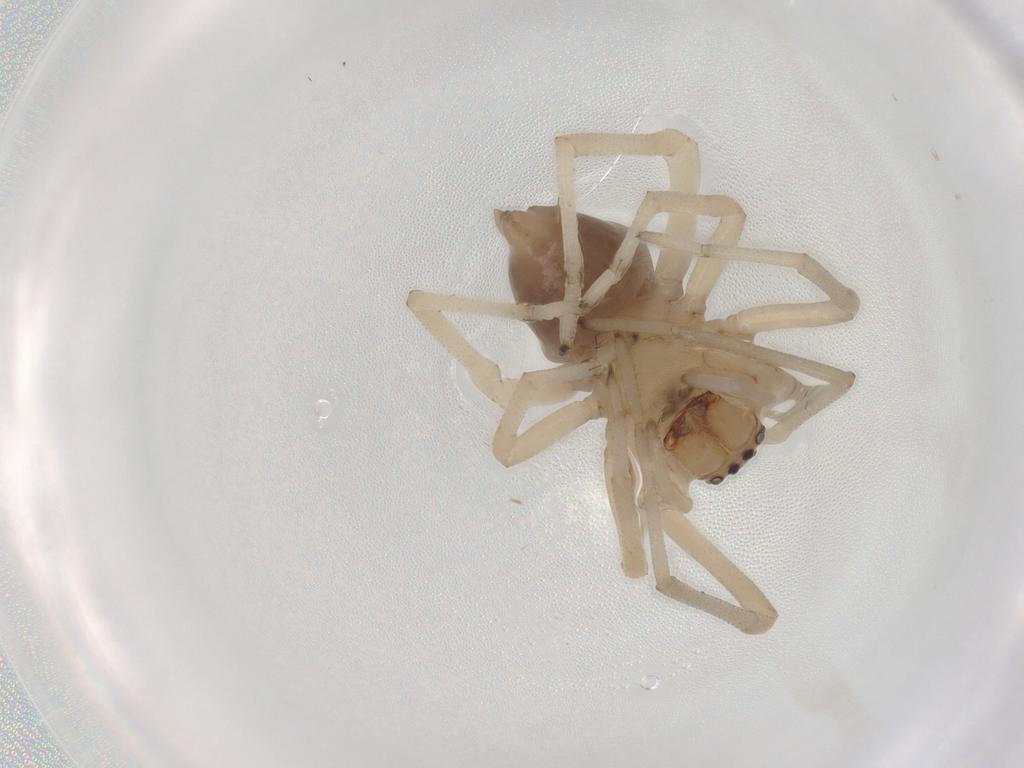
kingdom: Animalia
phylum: Arthropoda
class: Arachnida
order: Araneae
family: Cheiracanthiidae
